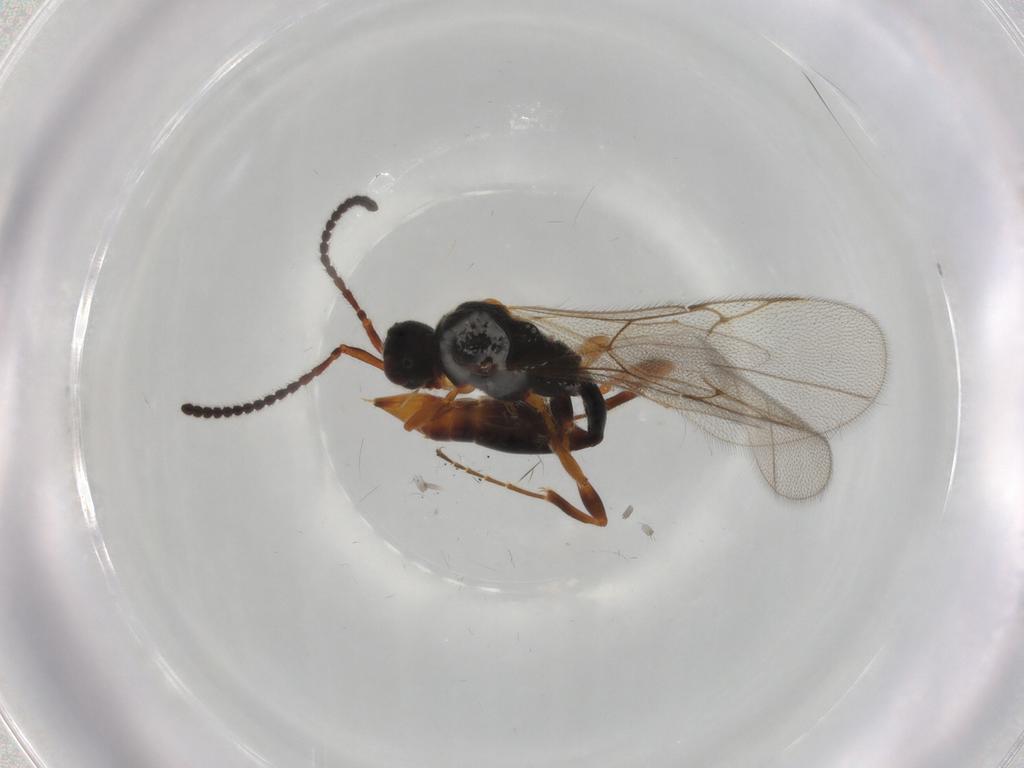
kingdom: Animalia
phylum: Arthropoda
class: Insecta
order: Hymenoptera
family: Diapriidae
